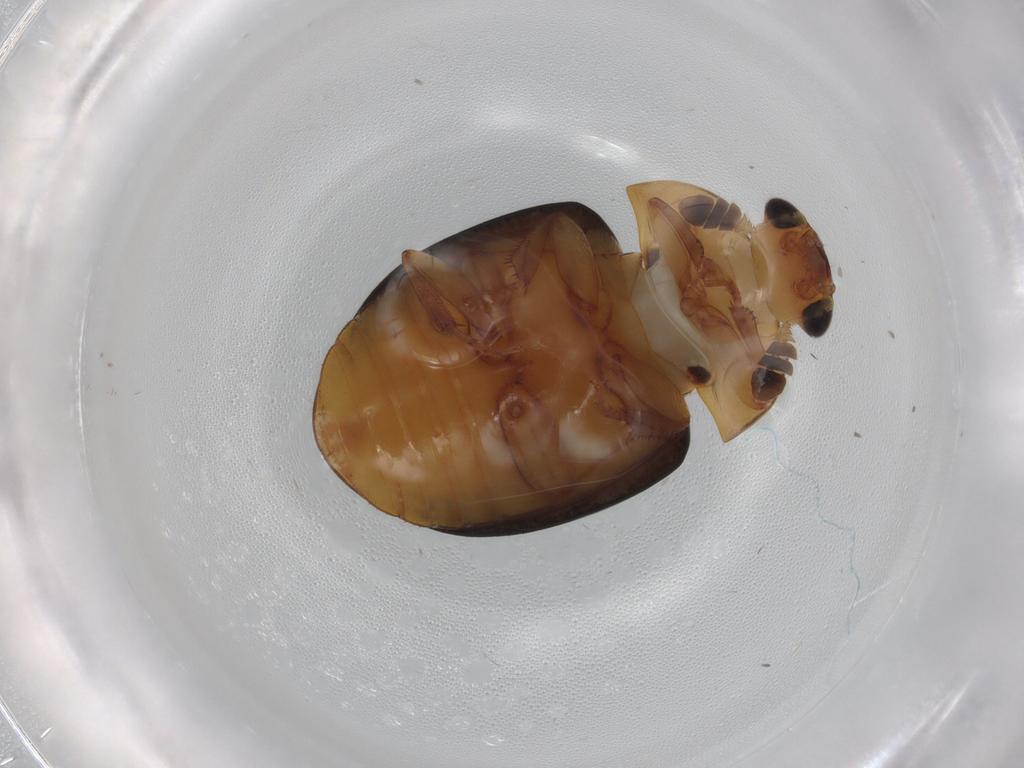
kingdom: Animalia
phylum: Arthropoda
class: Insecta
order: Coleoptera
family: Nitidulidae
